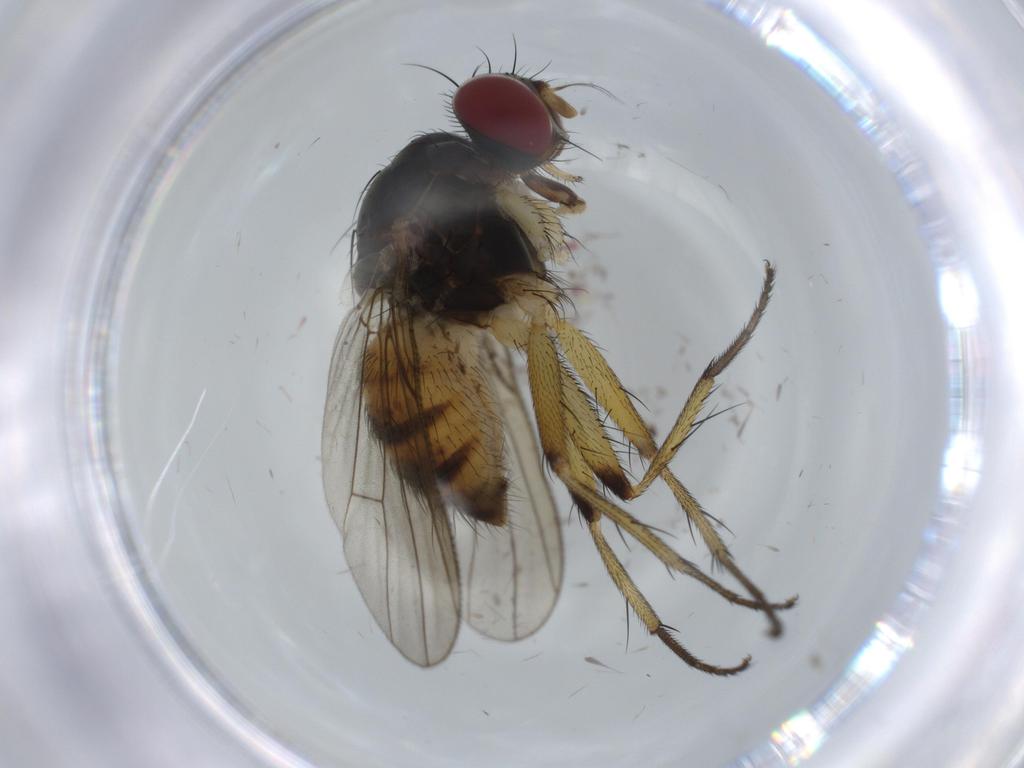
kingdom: Animalia
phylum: Arthropoda
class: Insecta
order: Diptera
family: Muscidae
